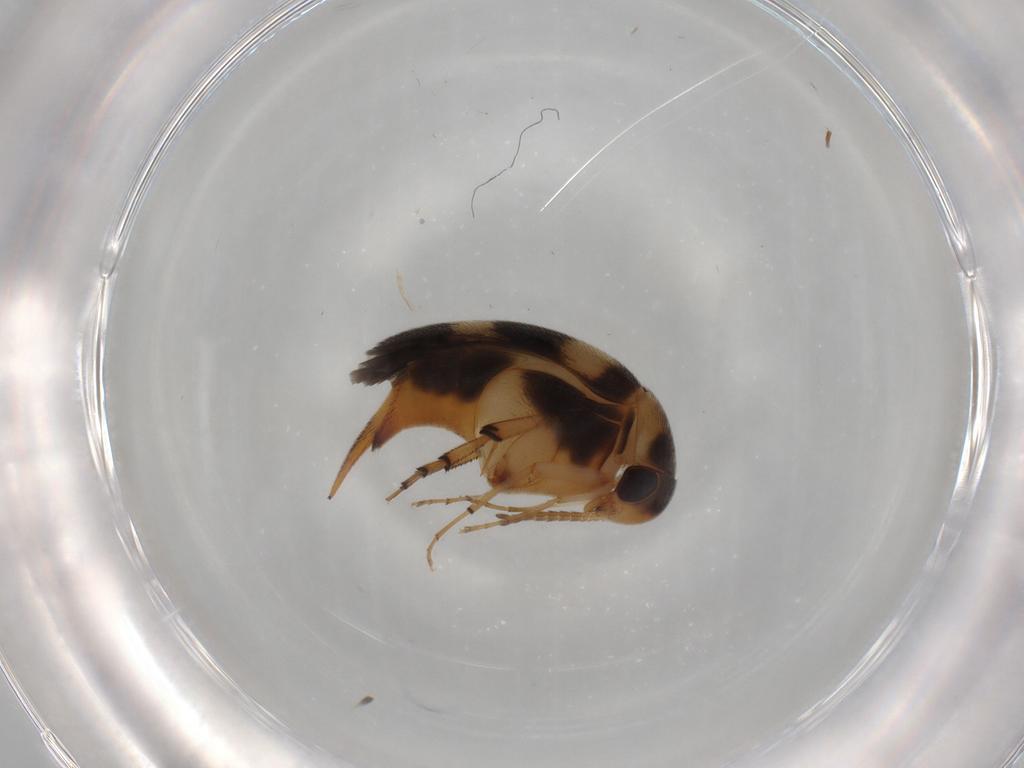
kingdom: Animalia
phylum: Arthropoda
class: Insecta
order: Coleoptera
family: Mordellidae
